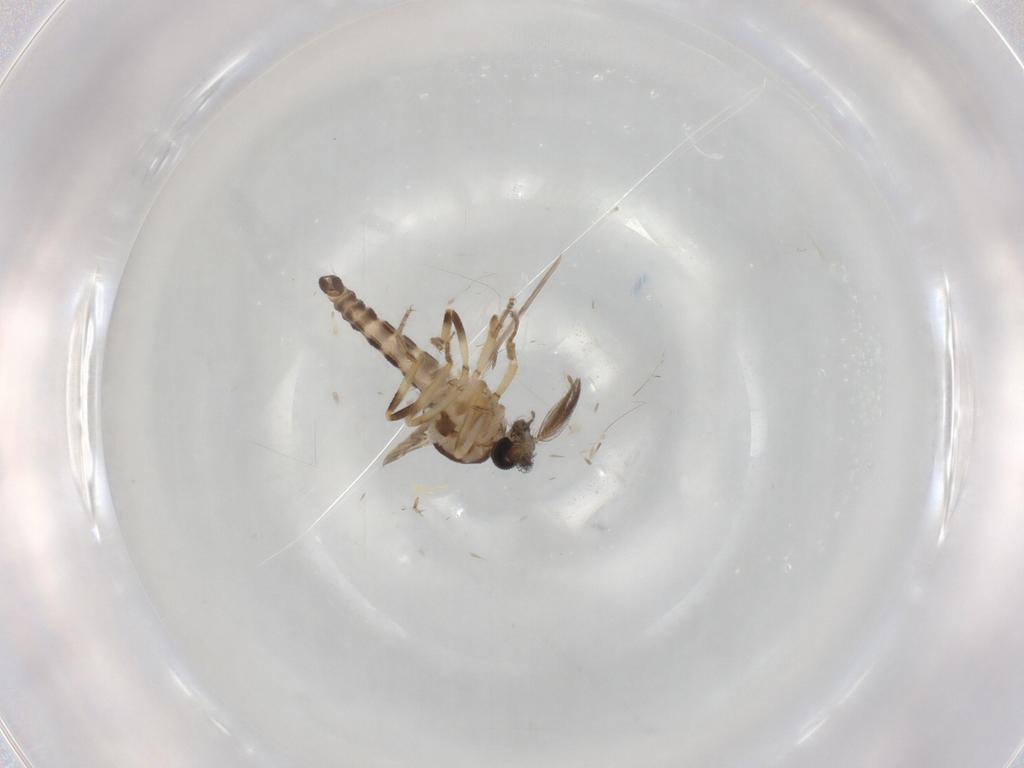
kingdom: Animalia
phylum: Arthropoda
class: Insecta
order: Diptera
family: Ceratopogonidae
